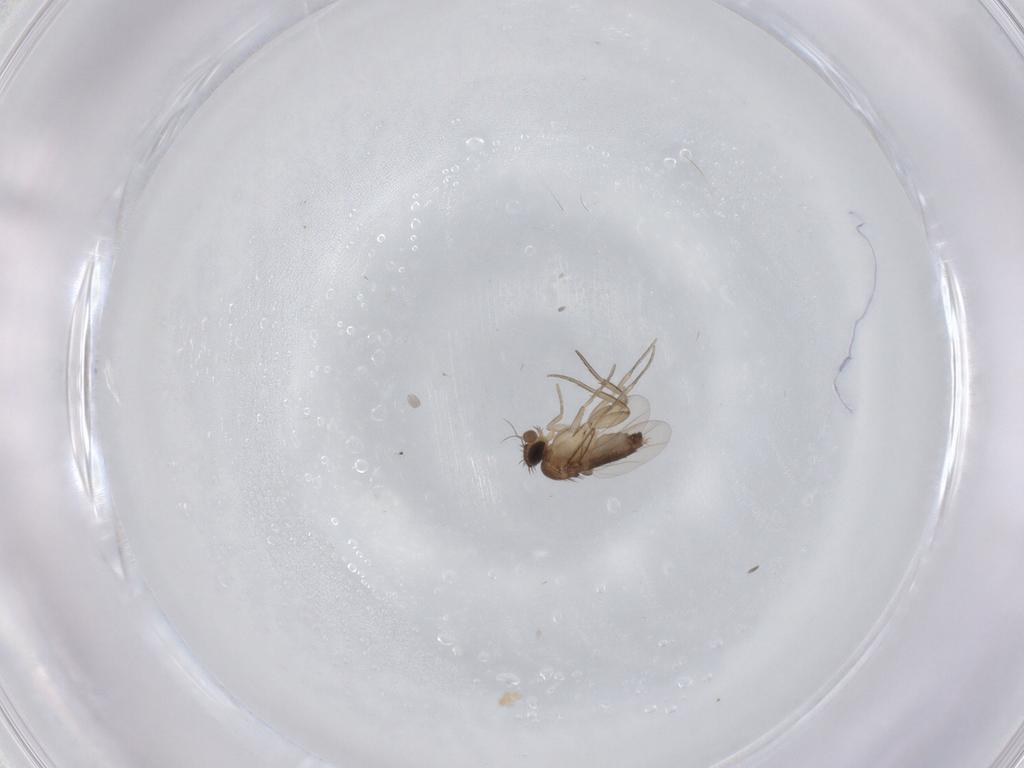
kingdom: Animalia
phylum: Arthropoda
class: Insecta
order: Diptera
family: Phoridae
